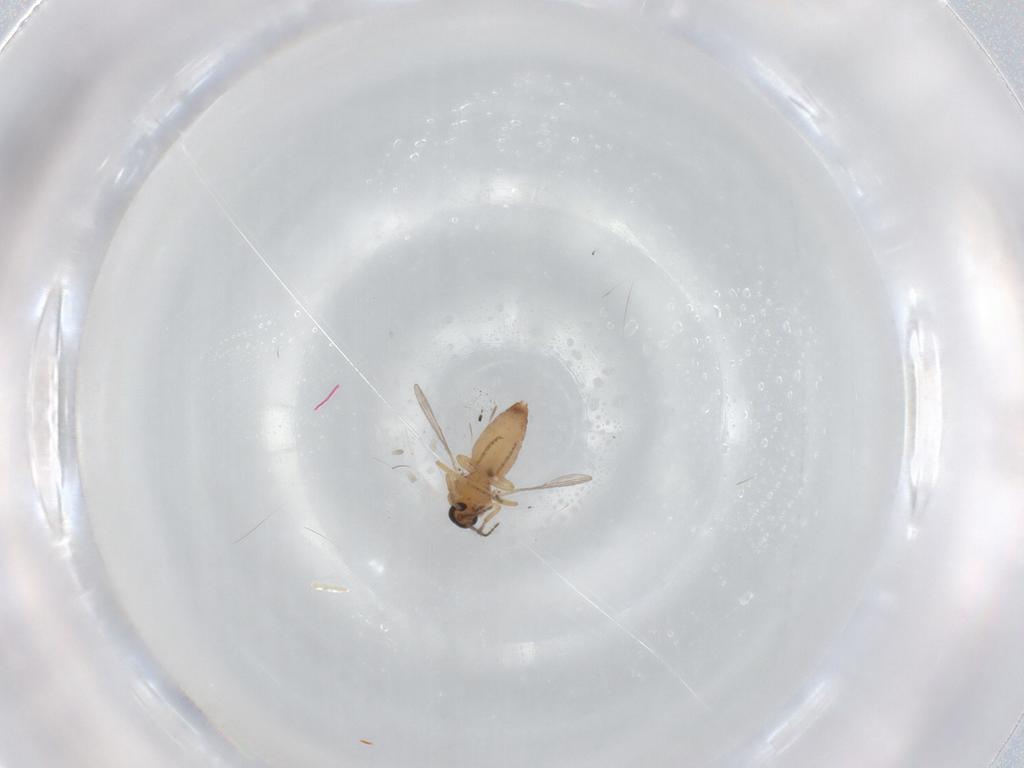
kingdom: Animalia
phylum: Arthropoda
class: Insecta
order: Diptera
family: Ceratopogonidae
